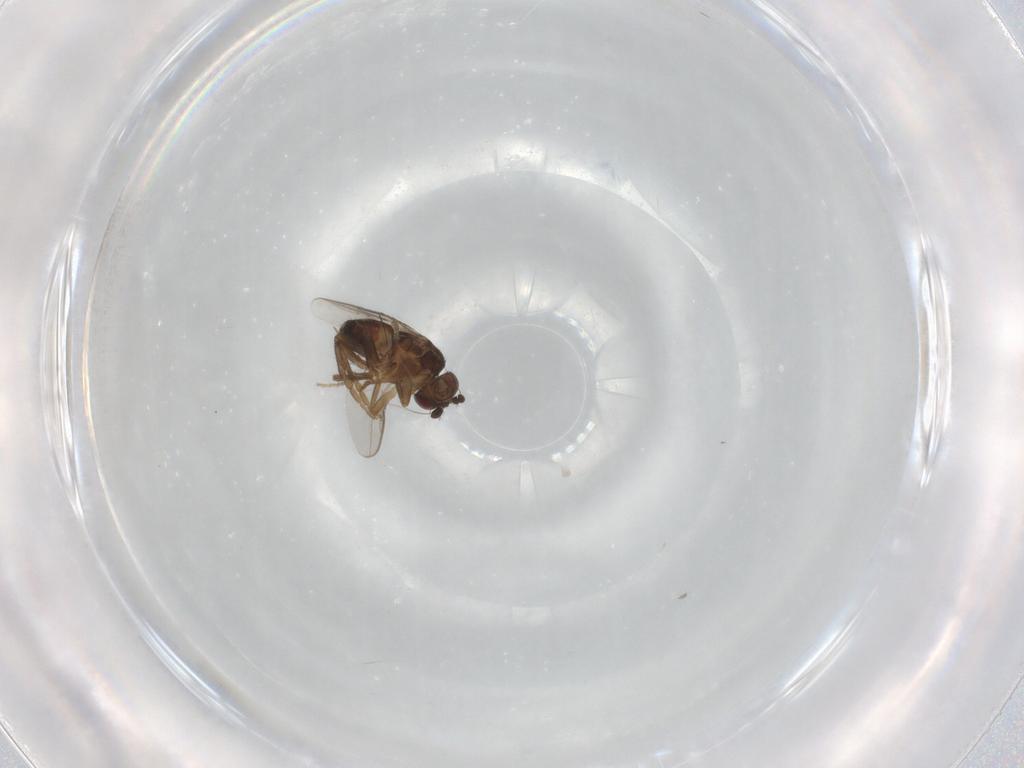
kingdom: Animalia
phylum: Arthropoda
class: Insecta
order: Diptera
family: Sphaeroceridae
